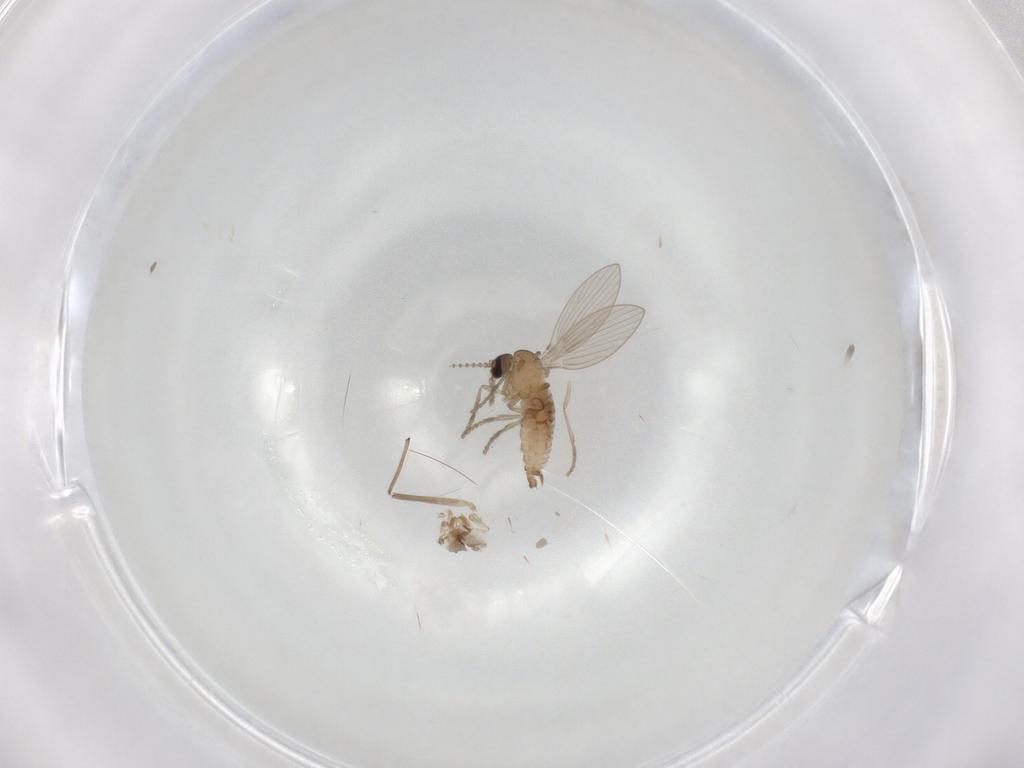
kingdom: Animalia
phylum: Arthropoda
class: Insecta
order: Diptera
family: Psychodidae
